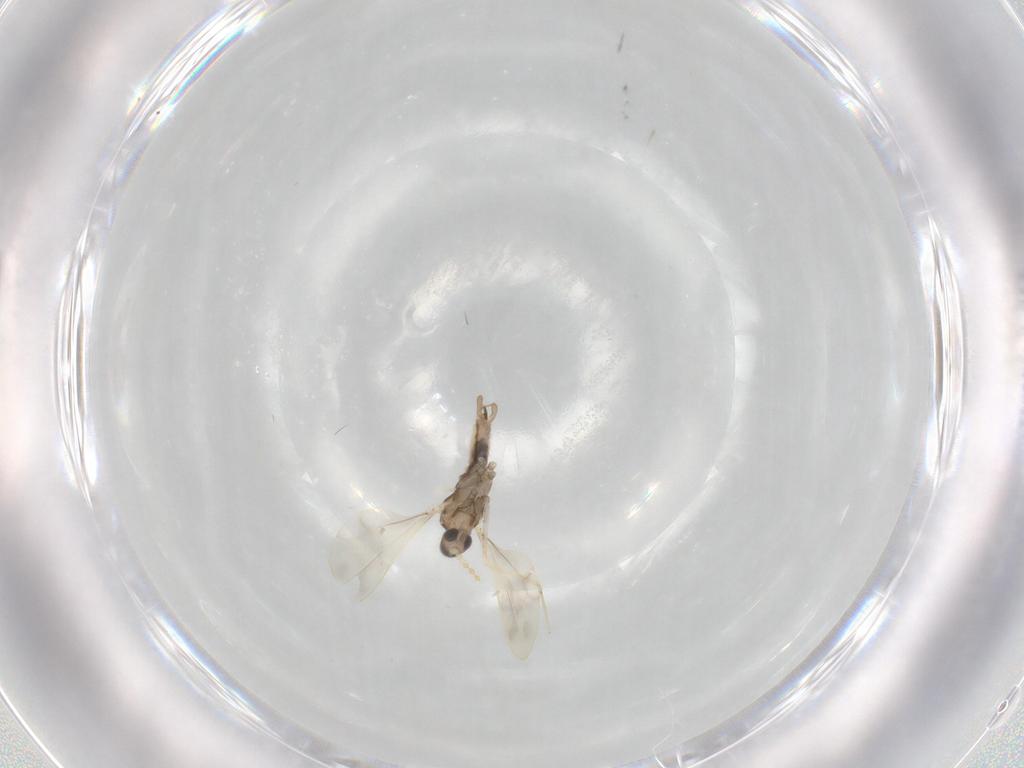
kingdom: Animalia
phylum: Arthropoda
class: Insecta
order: Diptera
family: Cecidomyiidae
